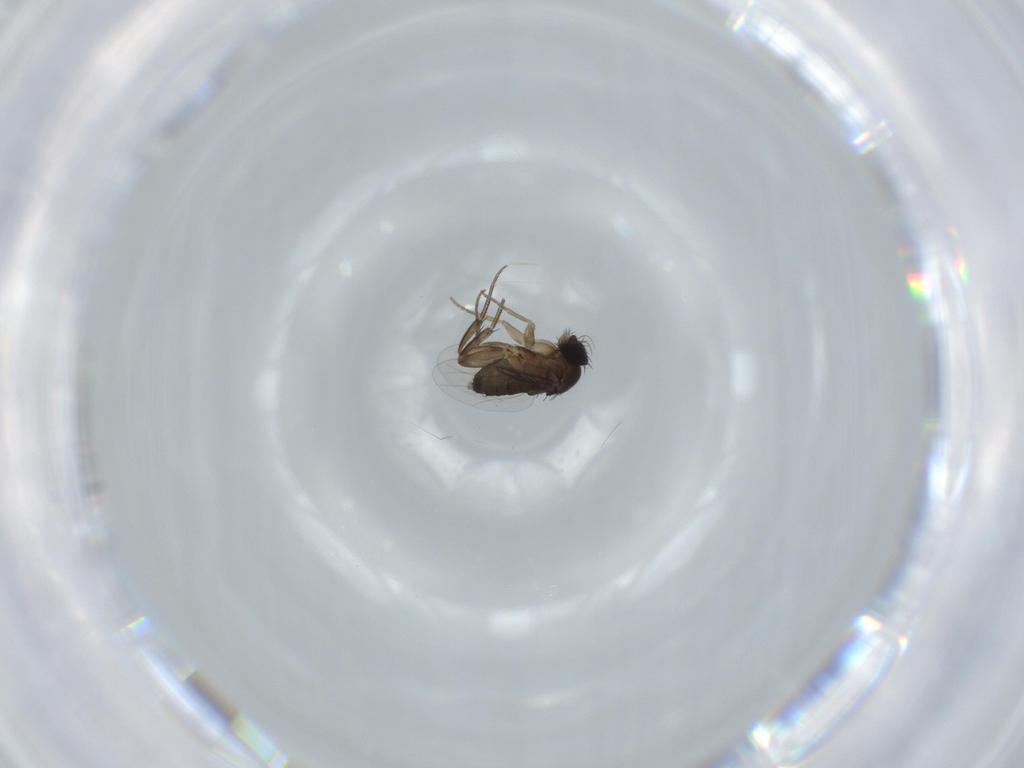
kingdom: Animalia
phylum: Arthropoda
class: Insecta
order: Diptera
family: Phoridae
